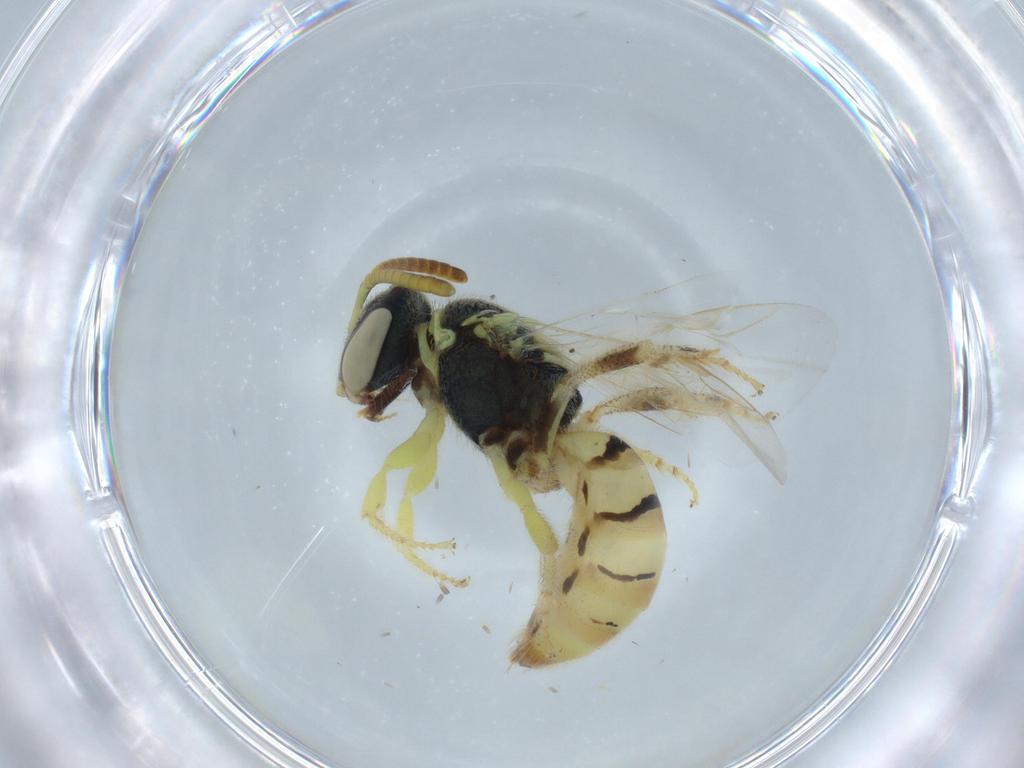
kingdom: Animalia
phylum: Arthropoda
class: Insecta
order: Hymenoptera
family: Halictidae
